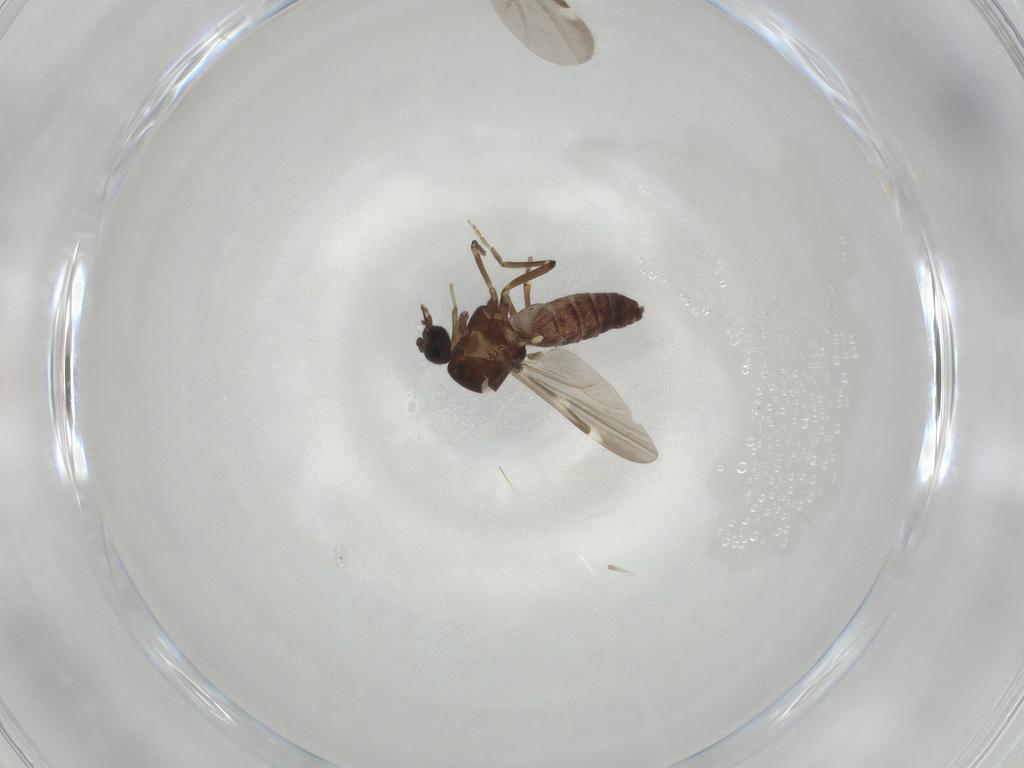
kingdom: Animalia
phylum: Arthropoda
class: Insecta
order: Diptera
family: Ceratopogonidae
